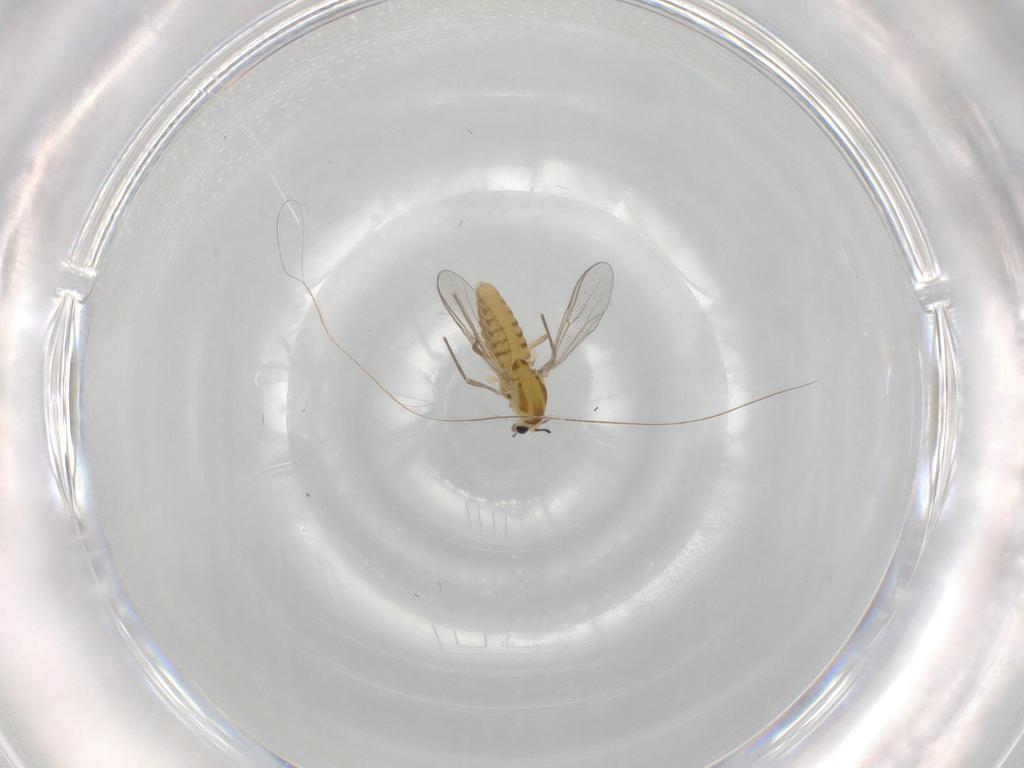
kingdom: Animalia
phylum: Arthropoda
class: Insecta
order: Diptera
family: Chironomidae
